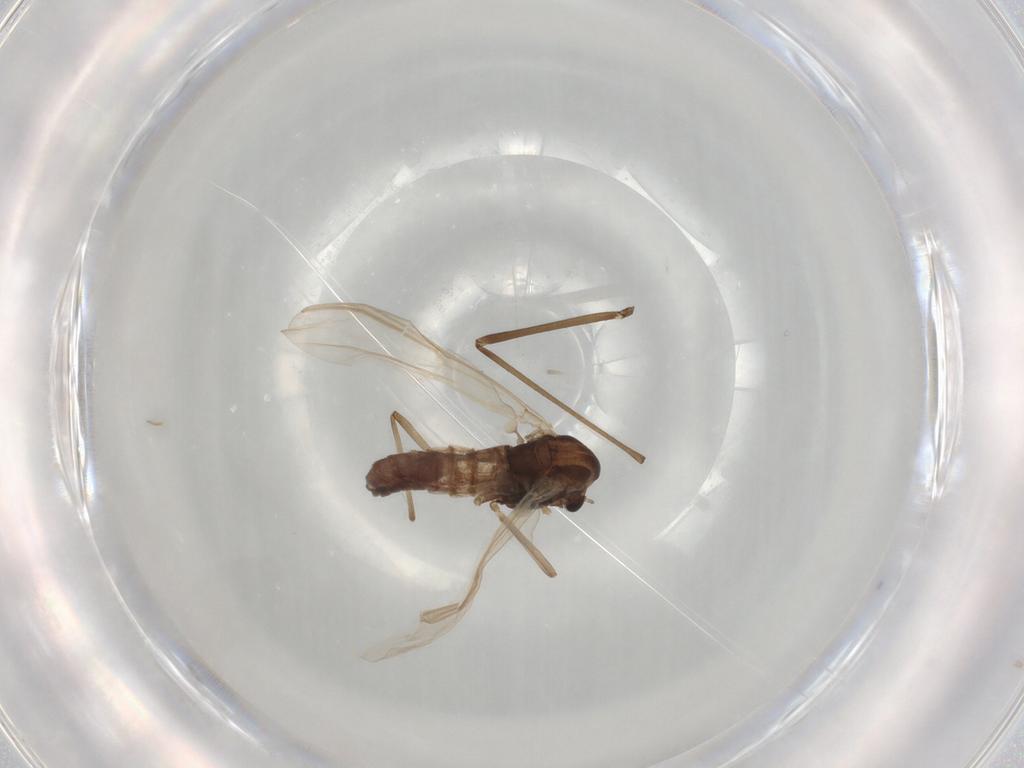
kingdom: Animalia
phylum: Arthropoda
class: Insecta
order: Diptera
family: Chironomidae
